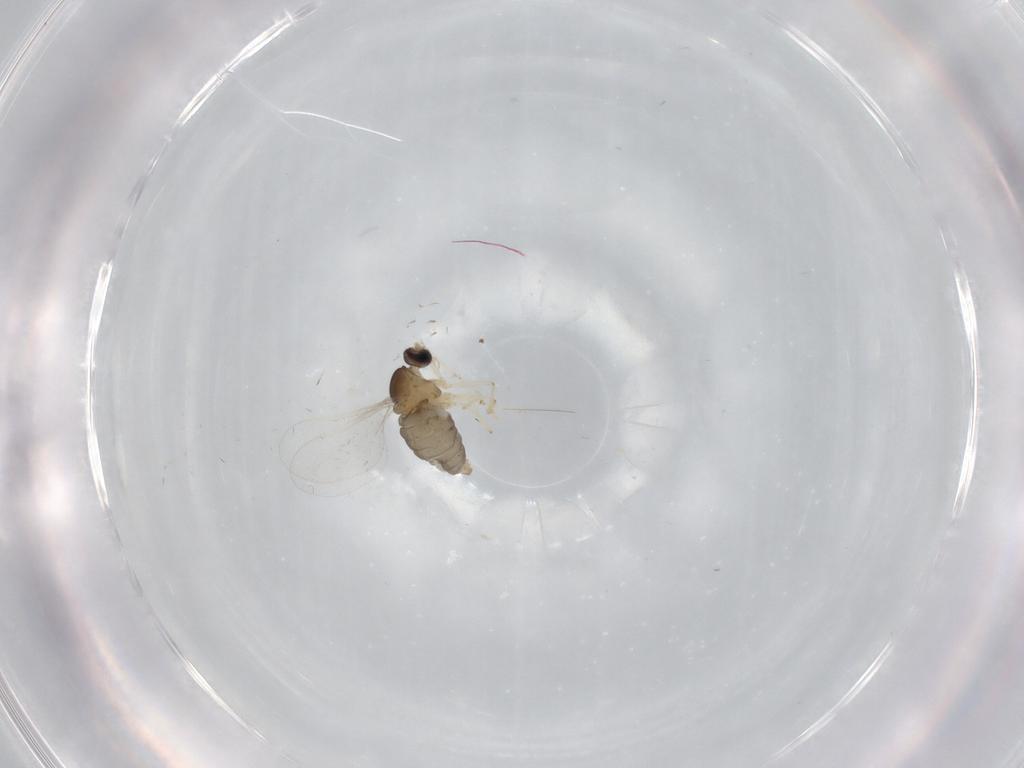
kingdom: Animalia
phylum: Arthropoda
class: Insecta
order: Diptera
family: Cecidomyiidae
